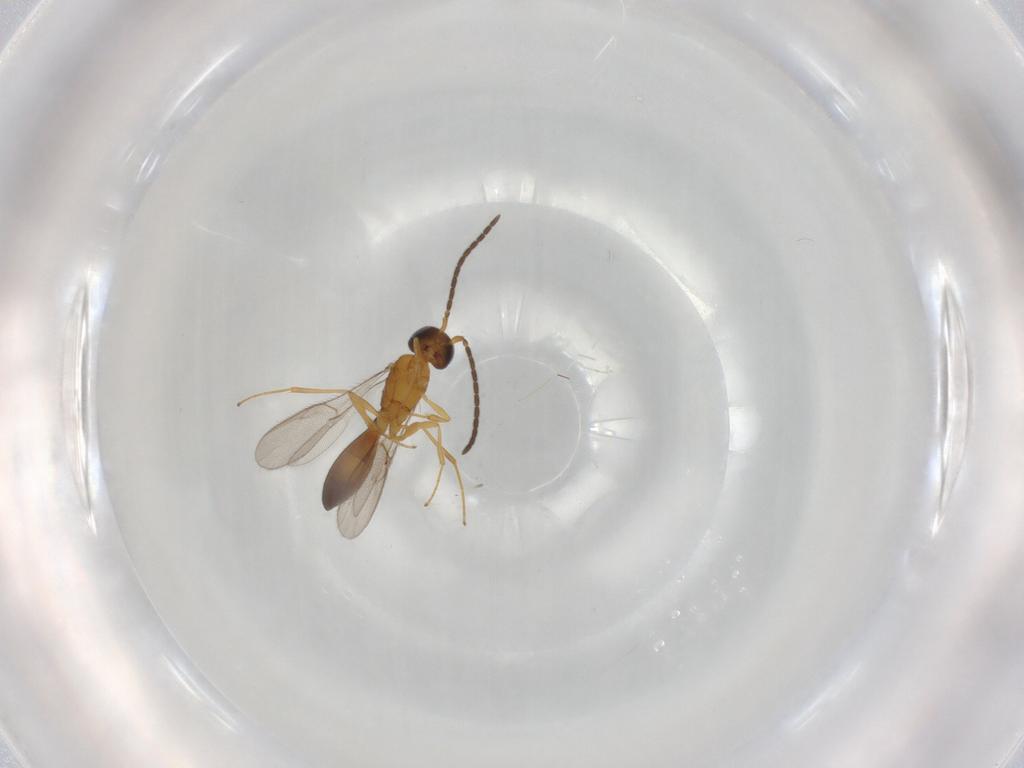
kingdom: Animalia
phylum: Arthropoda
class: Insecta
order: Hymenoptera
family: Scelionidae
